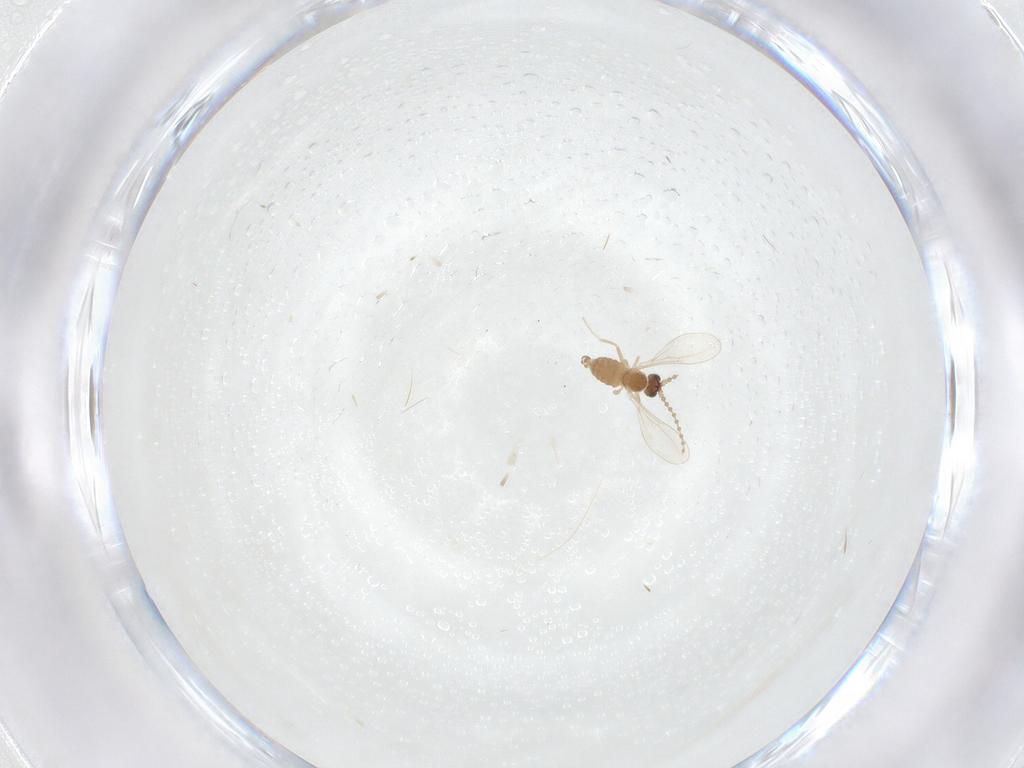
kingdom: Animalia
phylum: Arthropoda
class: Insecta
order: Diptera
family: Cecidomyiidae
